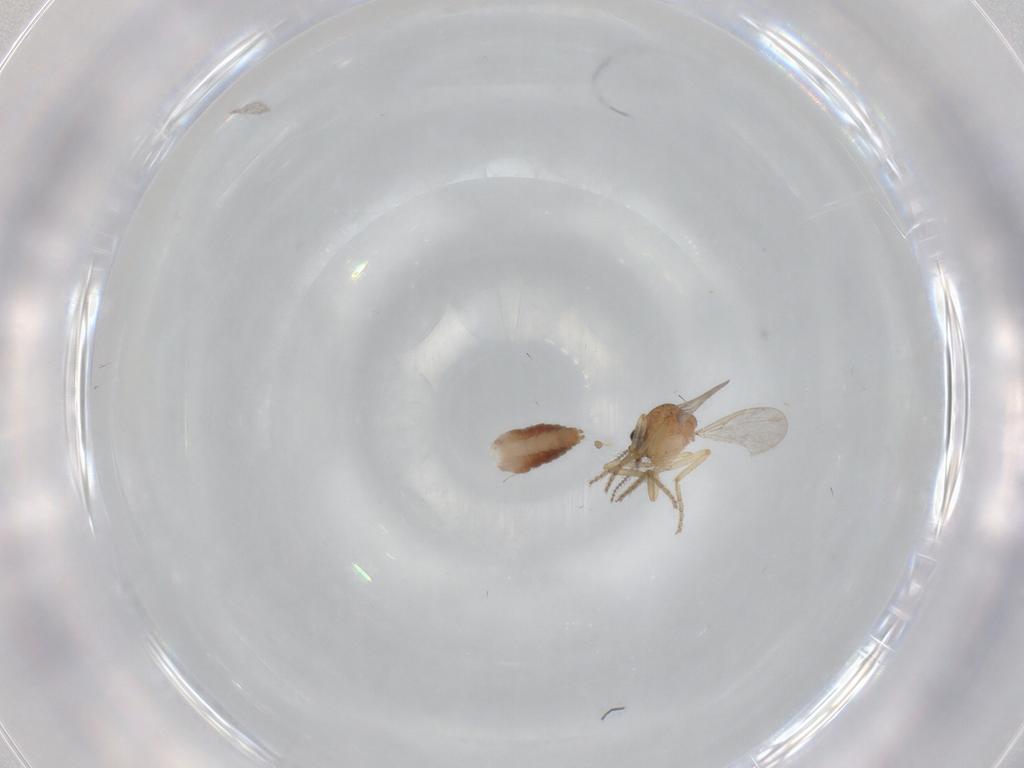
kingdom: Animalia
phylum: Arthropoda
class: Insecta
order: Diptera
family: Ceratopogonidae
